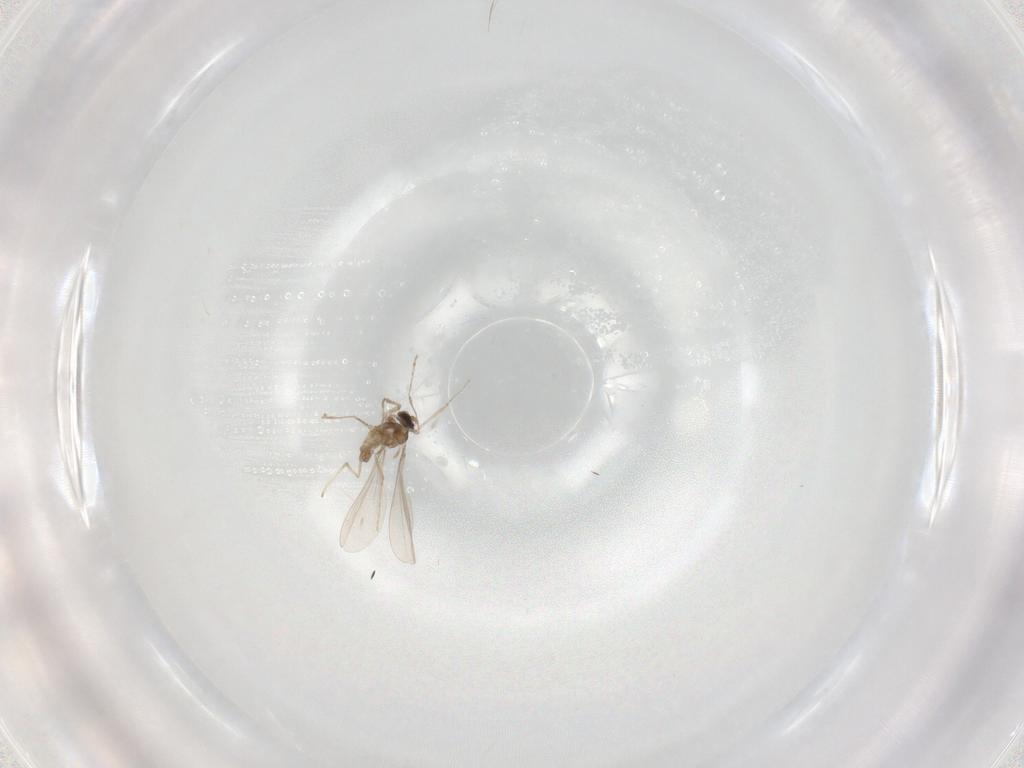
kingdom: Animalia
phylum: Arthropoda
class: Insecta
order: Diptera
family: Cecidomyiidae
